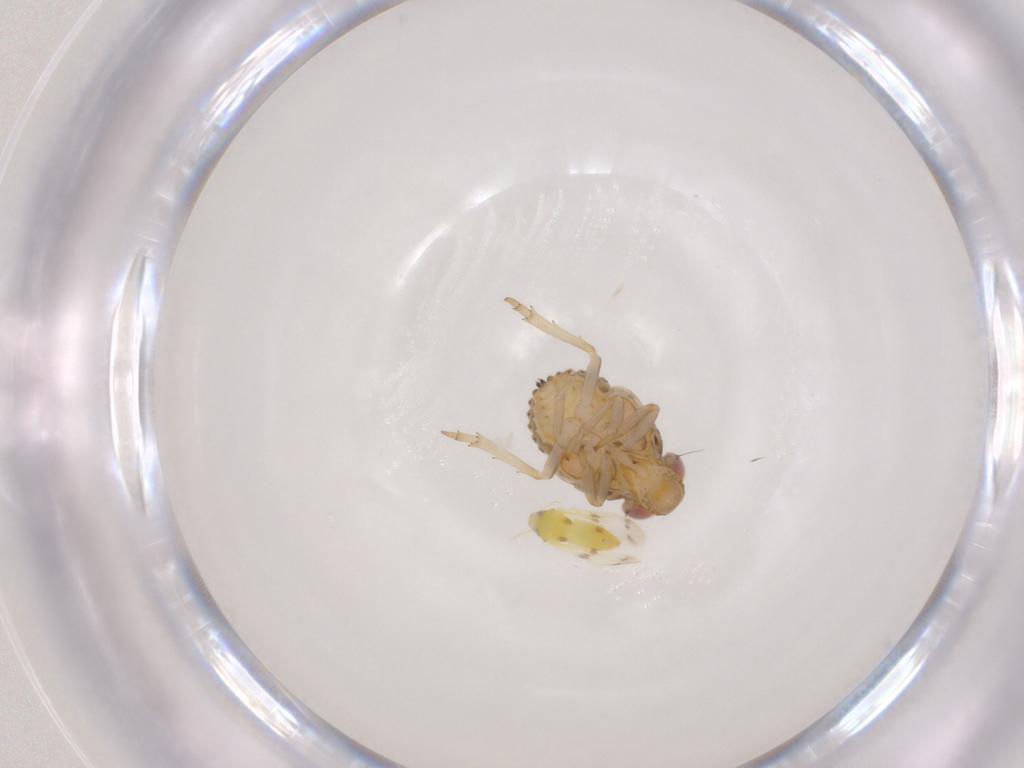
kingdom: Animalia
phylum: Arthropoda
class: Insecta
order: Hemiptera
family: Issidae
